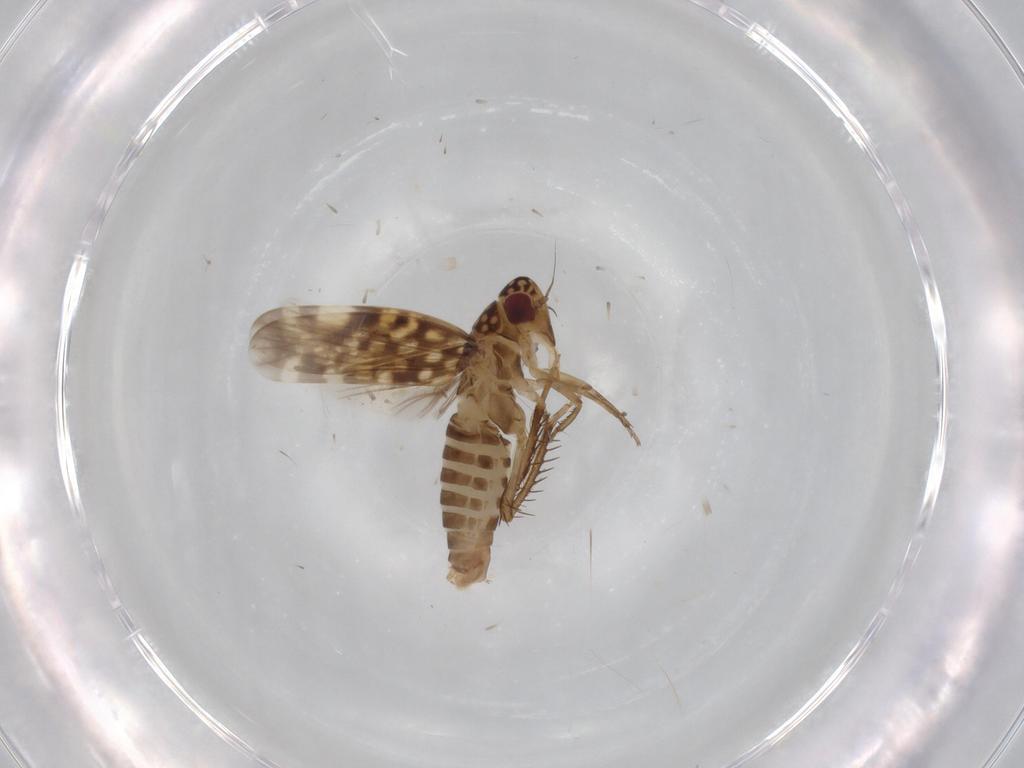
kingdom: Animalia
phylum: Arthropoda
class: Insecta
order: Hemiptera
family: Cicadellidae
